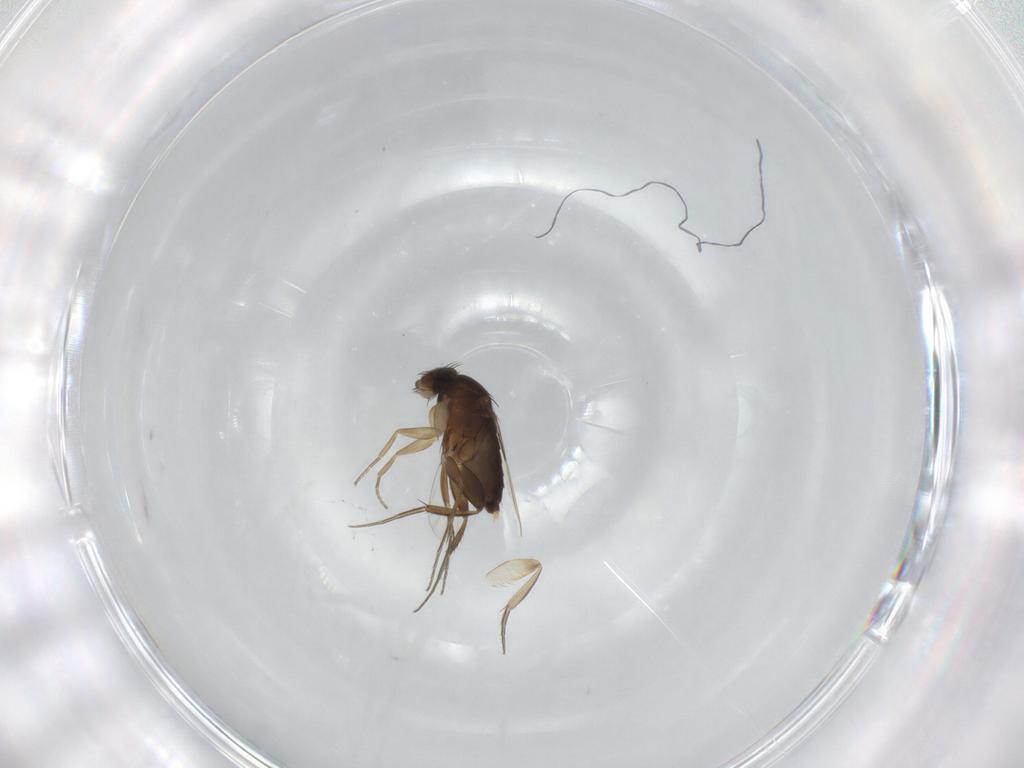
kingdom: Animalia
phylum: Arthropoda
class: Insecta
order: Diptera
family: Phoridae
